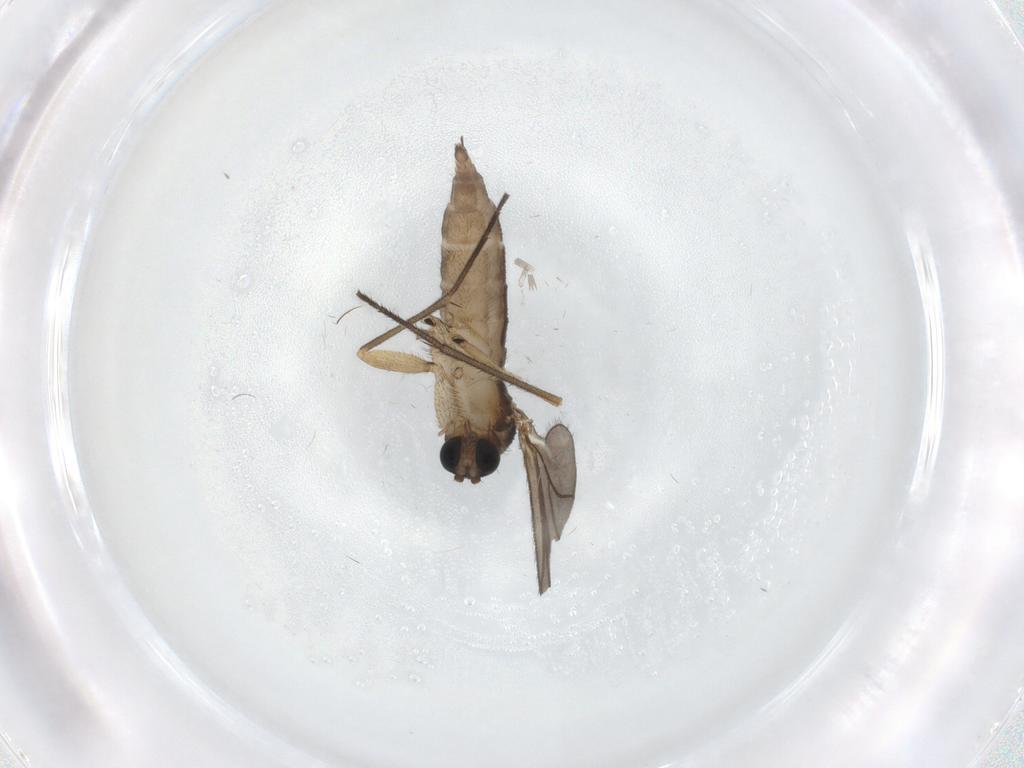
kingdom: Animalia
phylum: Arthropoda
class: Insecta
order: Diptera
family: Sciaridae
